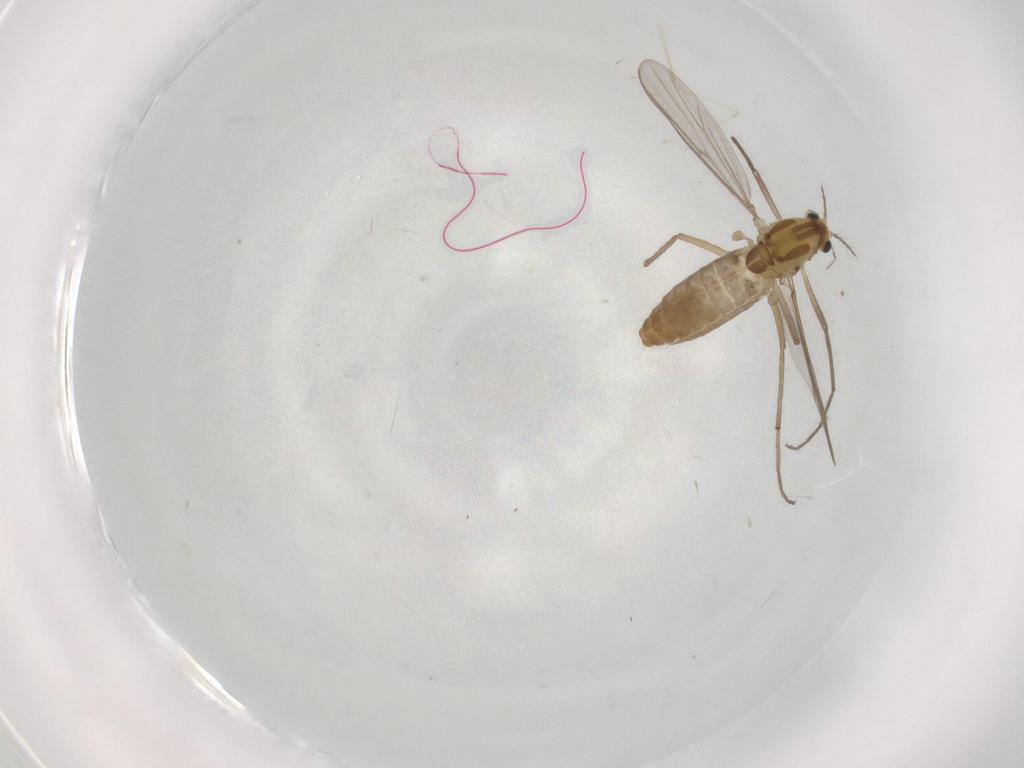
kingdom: Animalia
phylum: Arthropoda
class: Insecta
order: Diptera
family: Chironomidae
